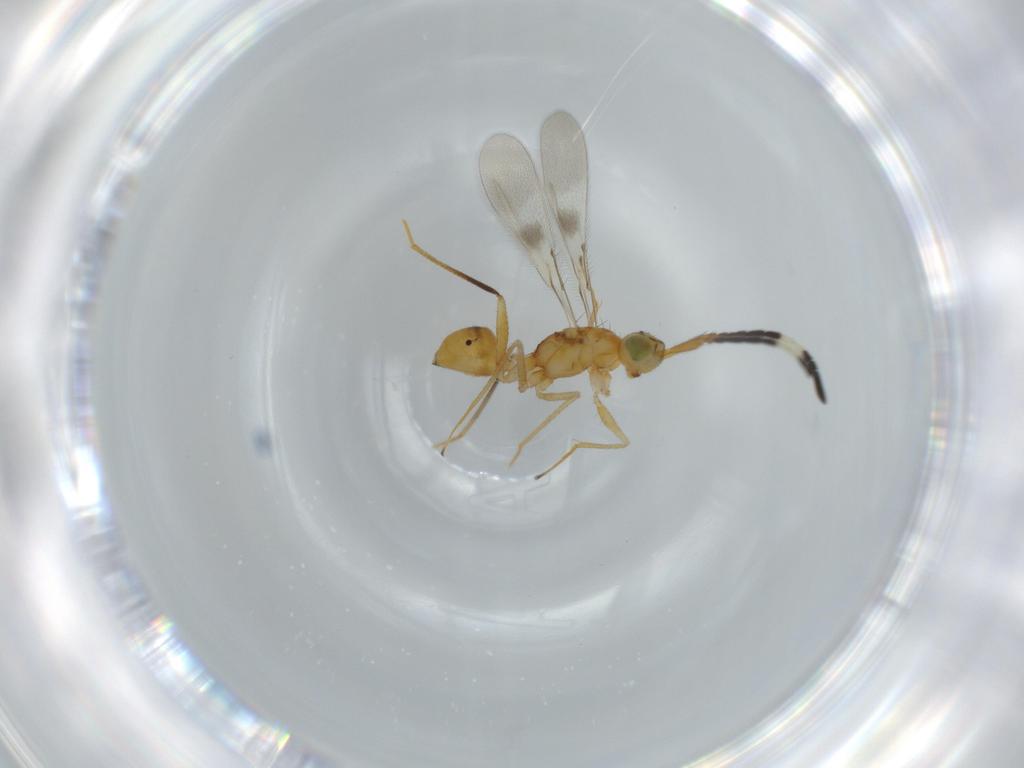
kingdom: Animalia
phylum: Arthropoda
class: Insecta
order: Hymenoptera
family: Mymaridae
